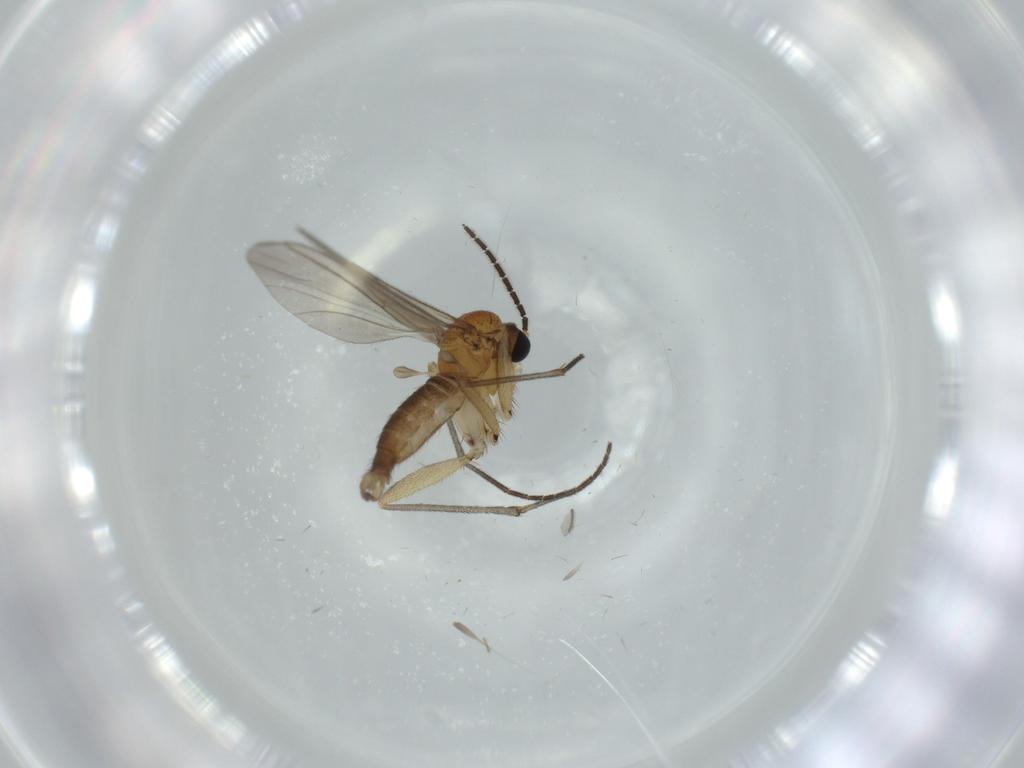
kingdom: Animalia
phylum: Arthropoda
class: Insecta
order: Diptera
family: Sciaridae
